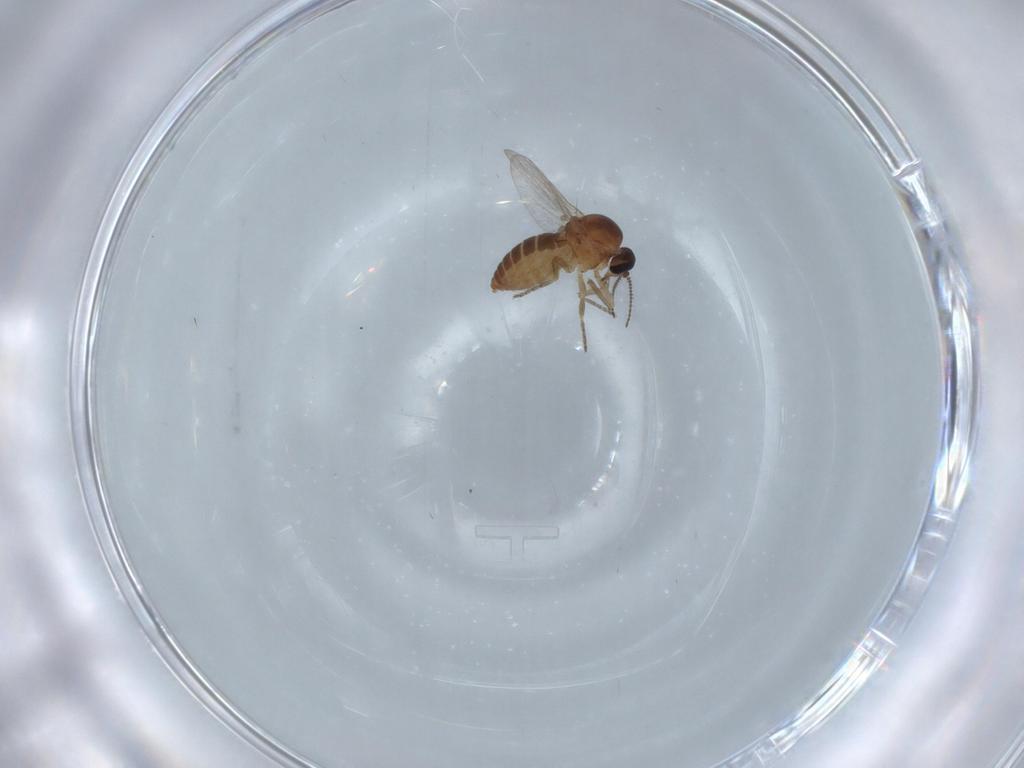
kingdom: Animalia
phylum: Arthropoda
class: Insecta
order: Diptera
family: Ceratopogonidae
